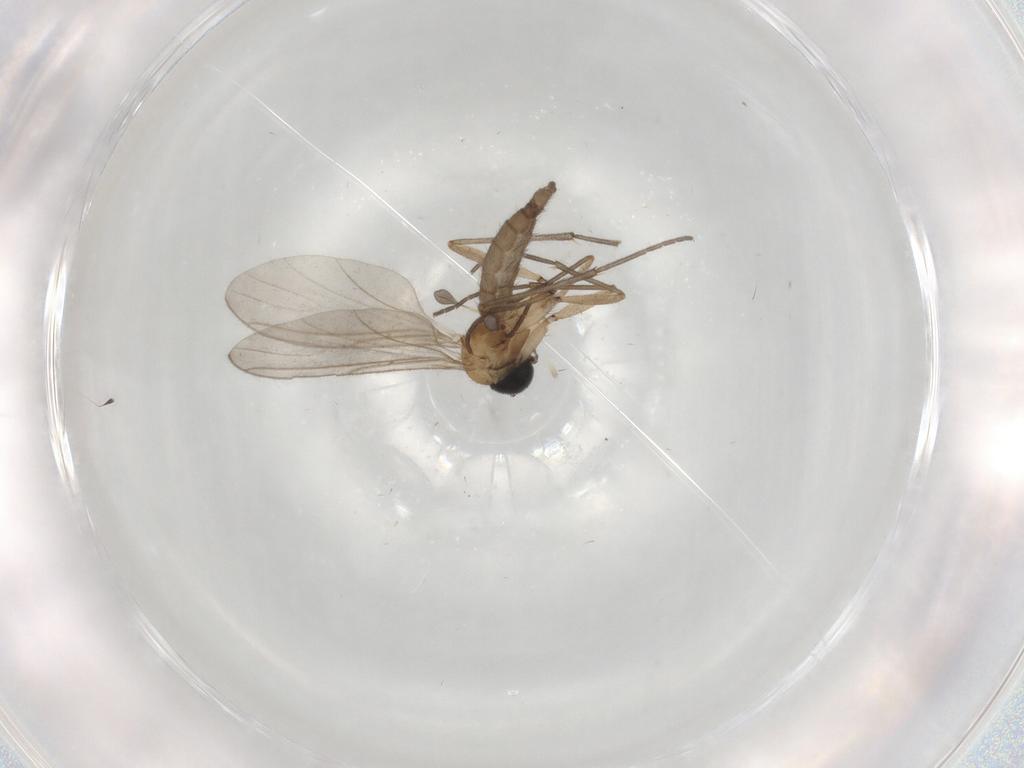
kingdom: Animalia
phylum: Arthropoda
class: Insecta
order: Diptera
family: Sciaridae
